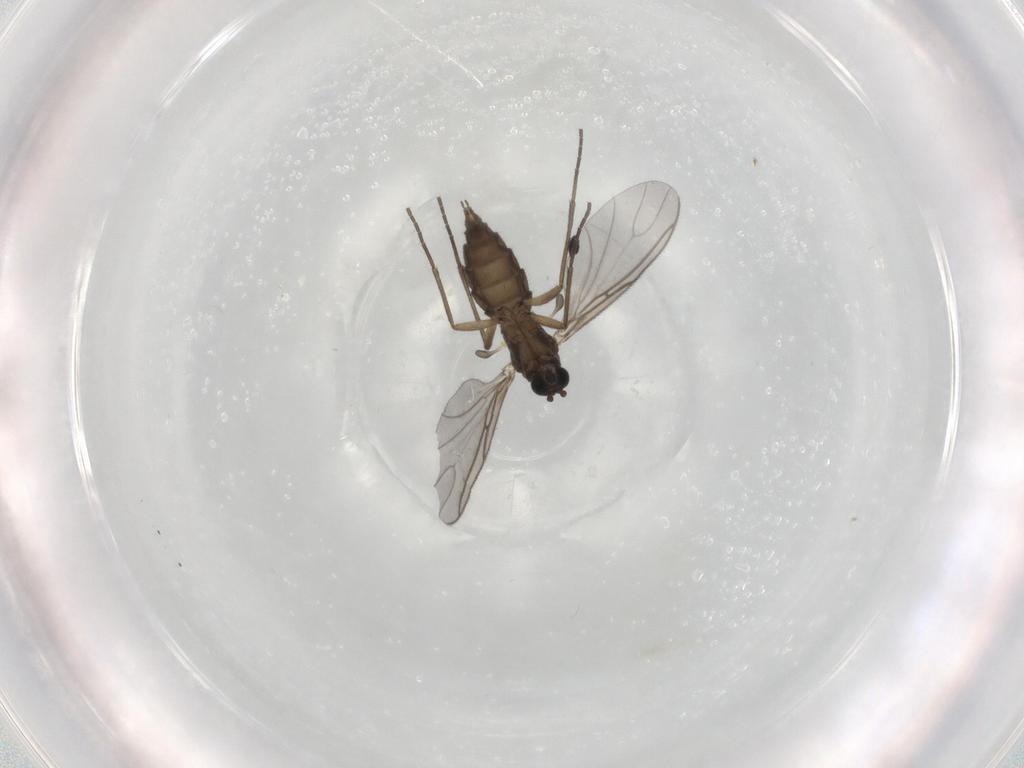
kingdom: Animalia
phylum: Arthropoda
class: Insecta
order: Diptera
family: Sciaridae
